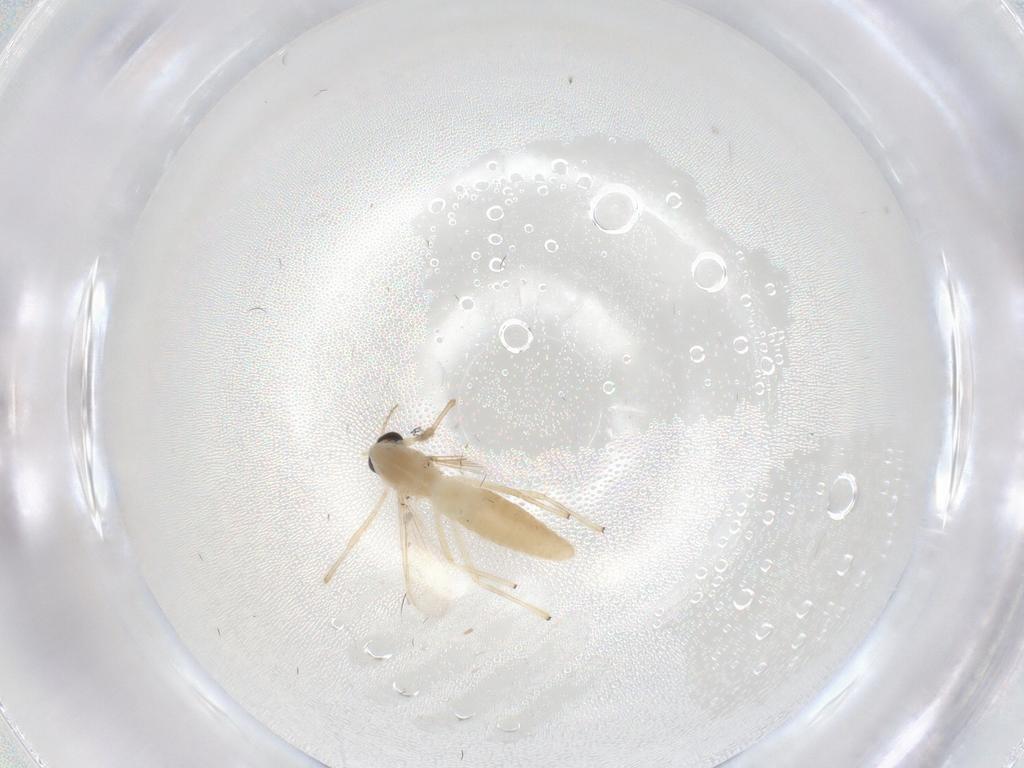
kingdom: Animalia
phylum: Arthropoda
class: Insecta
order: Diptera
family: Chironomidae
